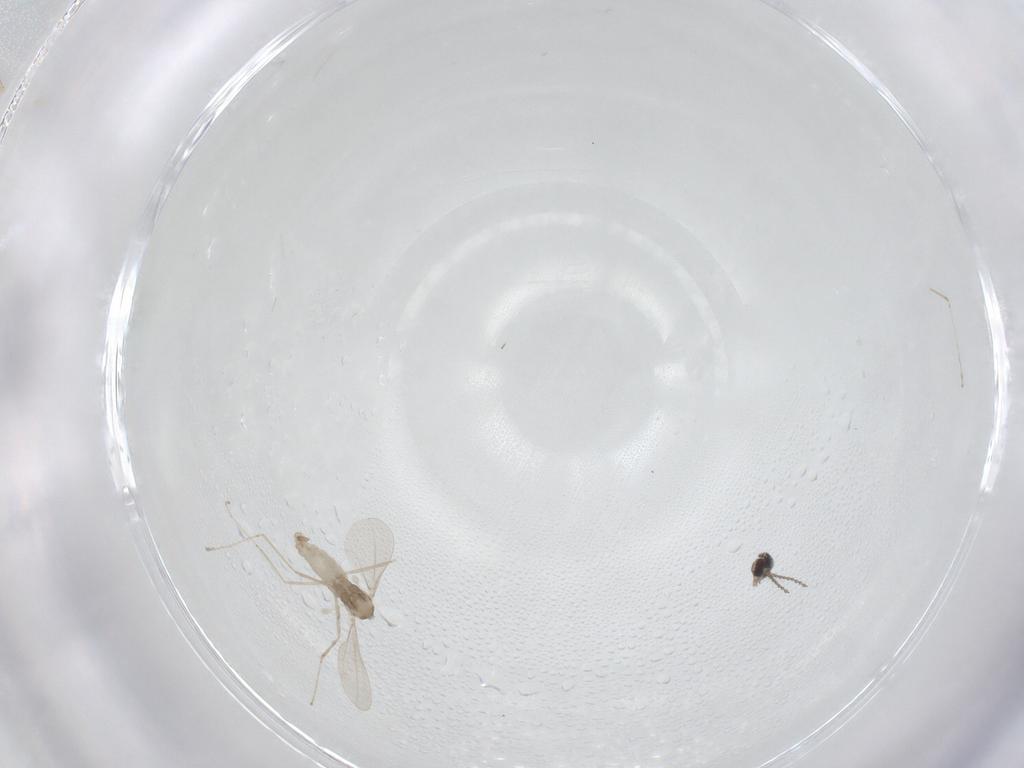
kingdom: Animalia
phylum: Arthropoda
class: Insecta
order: Diptera
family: Cecidomyiidae
